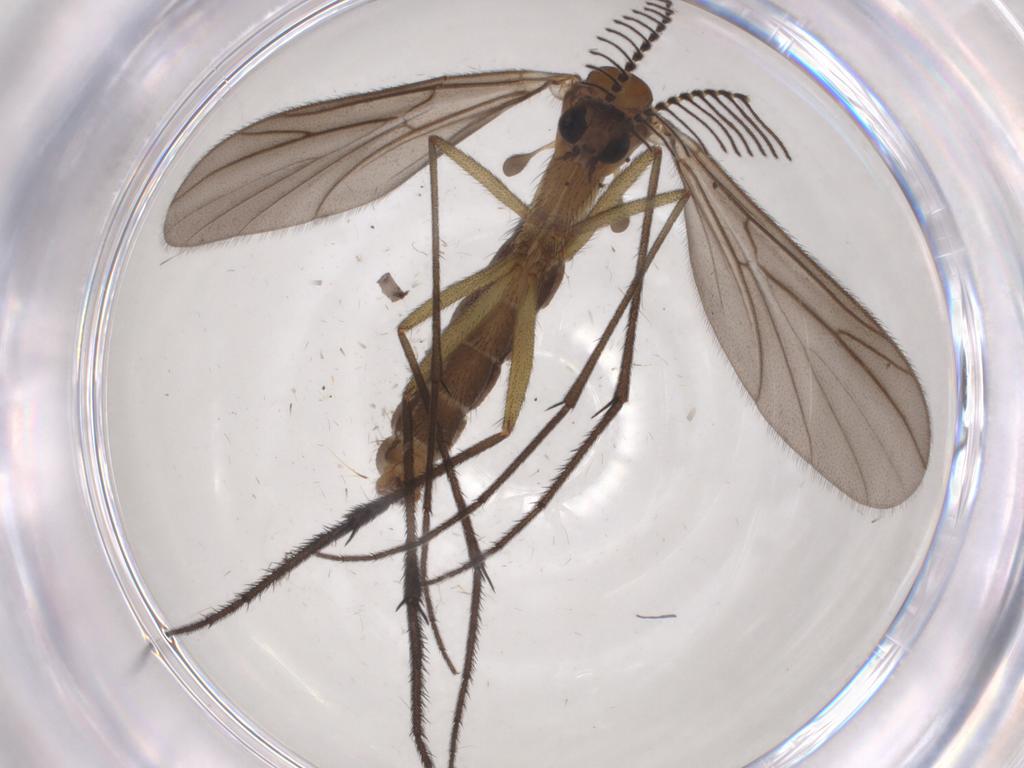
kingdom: Animalia
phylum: Arthropoda
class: Insecta
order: Diptera
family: Ditomyiidae
